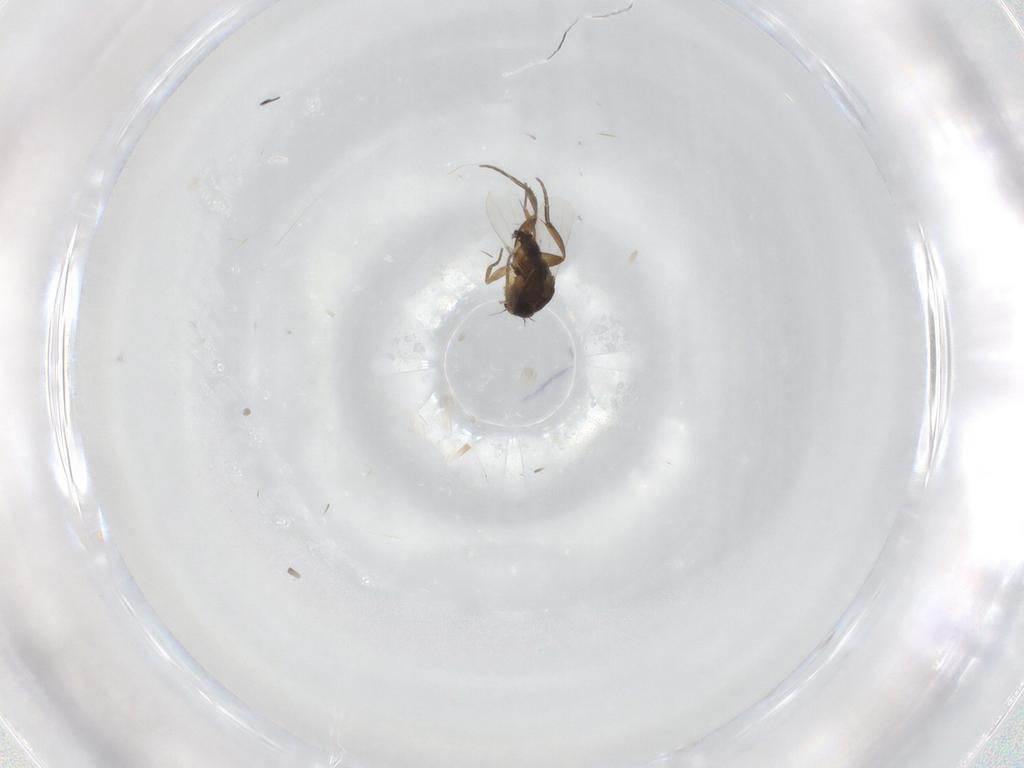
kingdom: Animalia
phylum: Arthropoda
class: Insecta
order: Diptera
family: Phoridae
